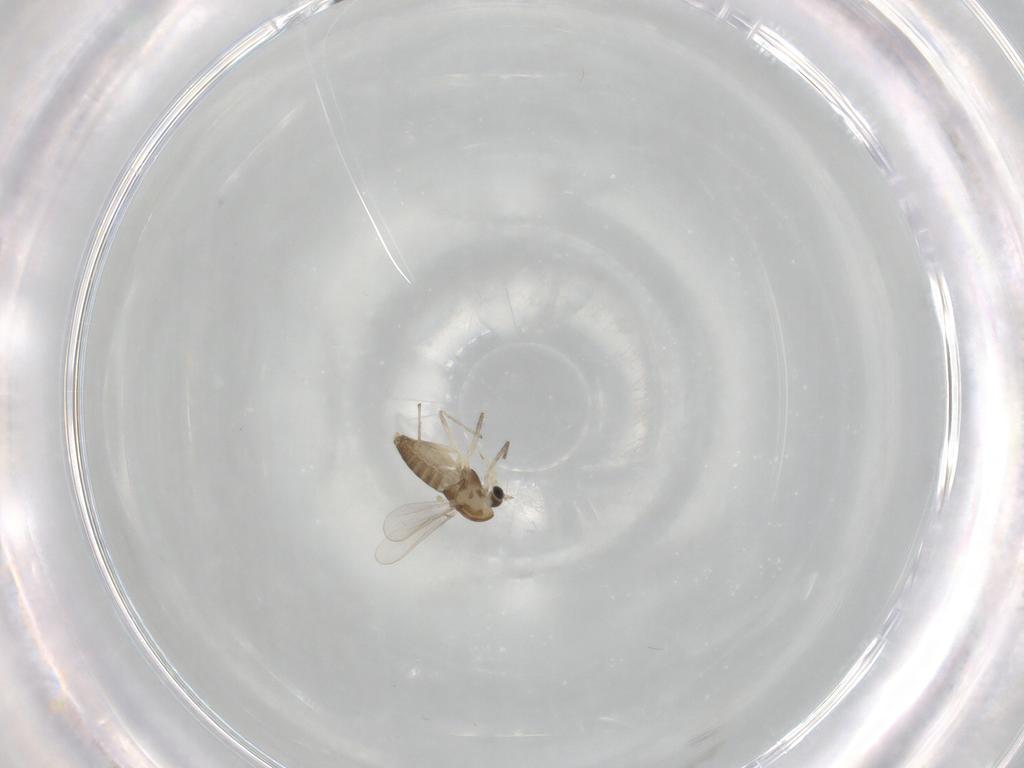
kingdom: Animalia
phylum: Arthropoda
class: Insecta
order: Diptera
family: Chironomidae
